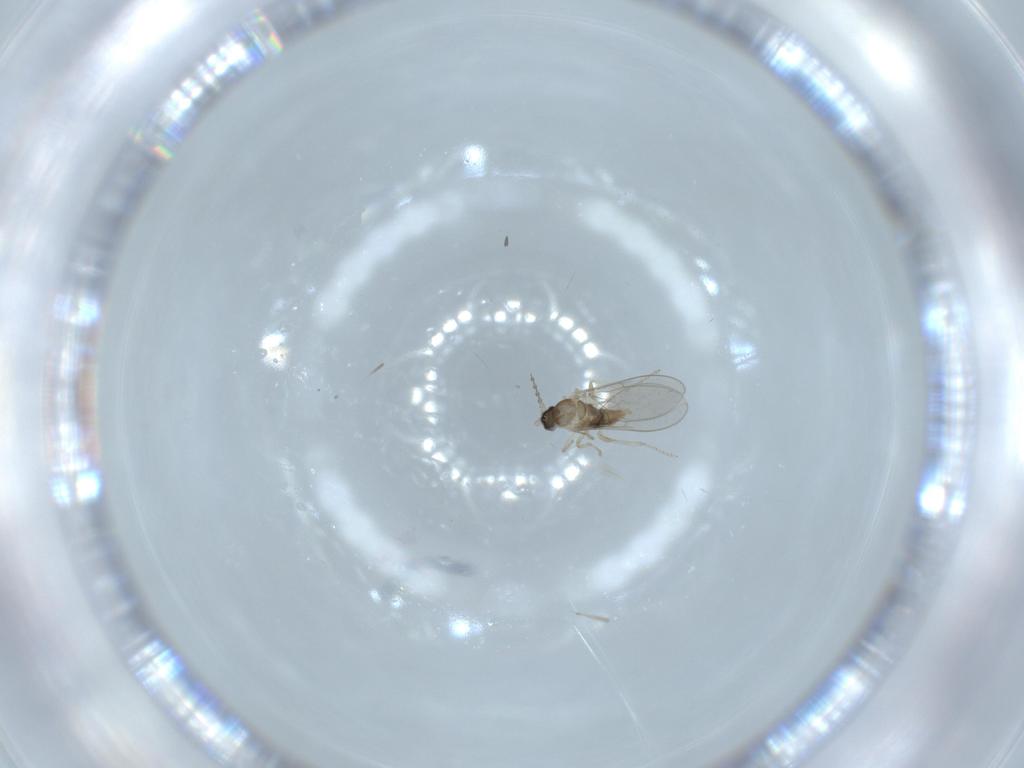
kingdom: Animalia
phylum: Arthropoda
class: Insecta
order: Diptera
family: Cecidomyiidae
